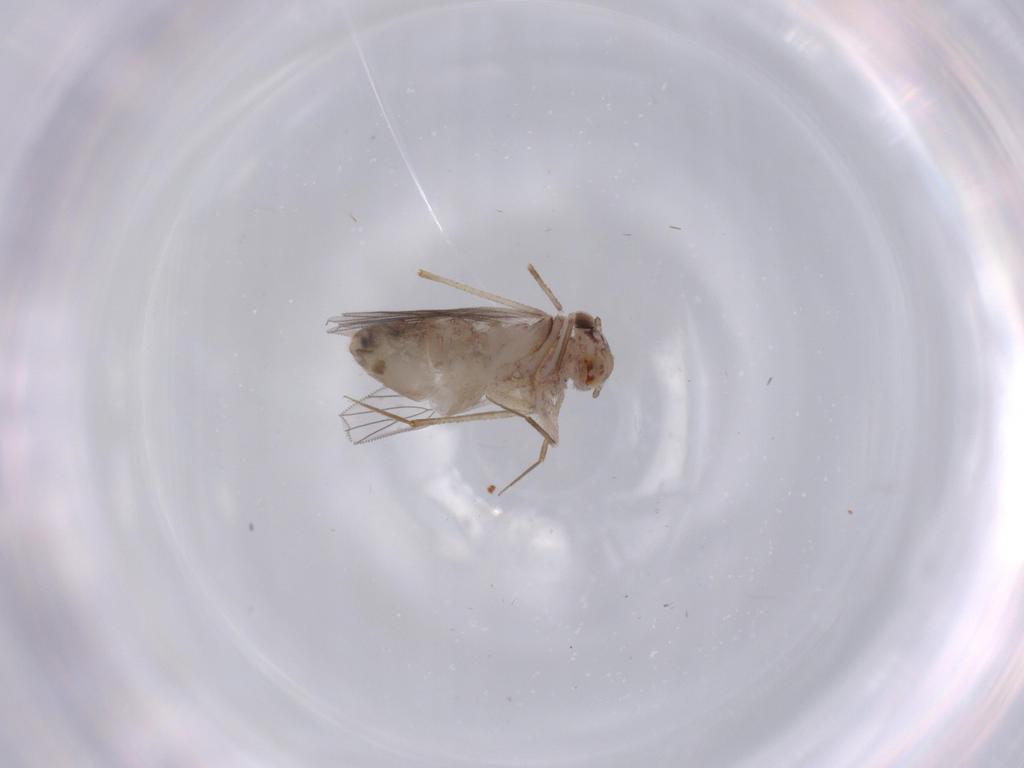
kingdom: Animalia
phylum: Arthropoda
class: Insecta
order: Psocodea
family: Lepidopsocidae
